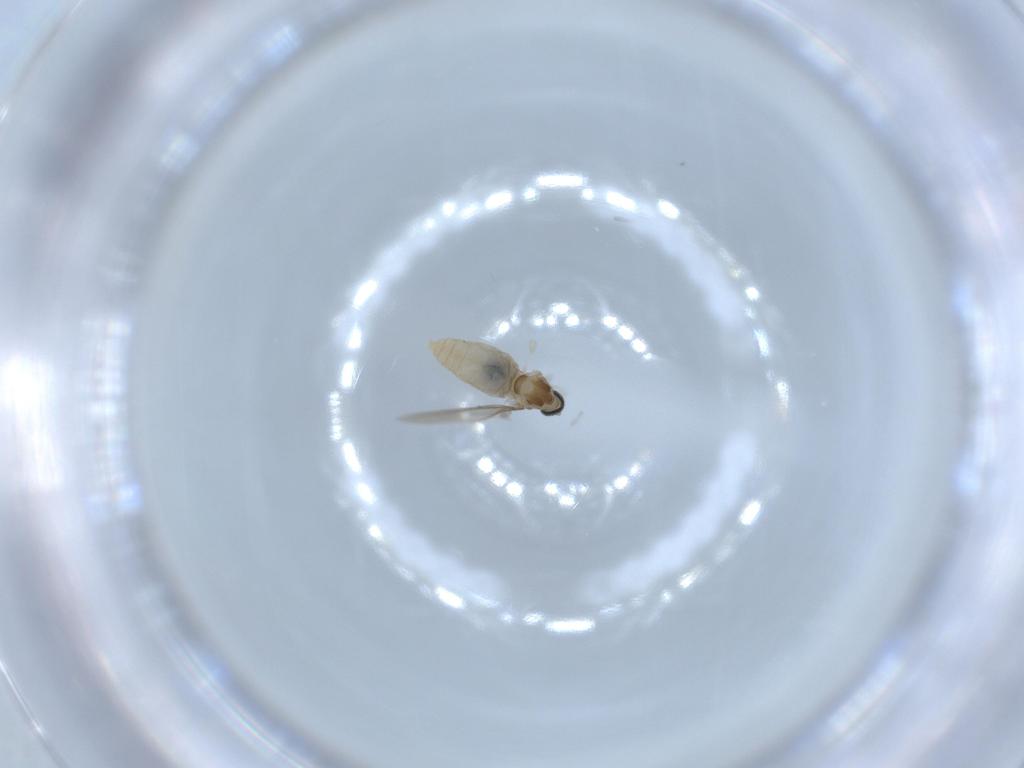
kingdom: Animalia
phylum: Arthropoda
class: Insecta
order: Diptera
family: Cecidomyiidae
